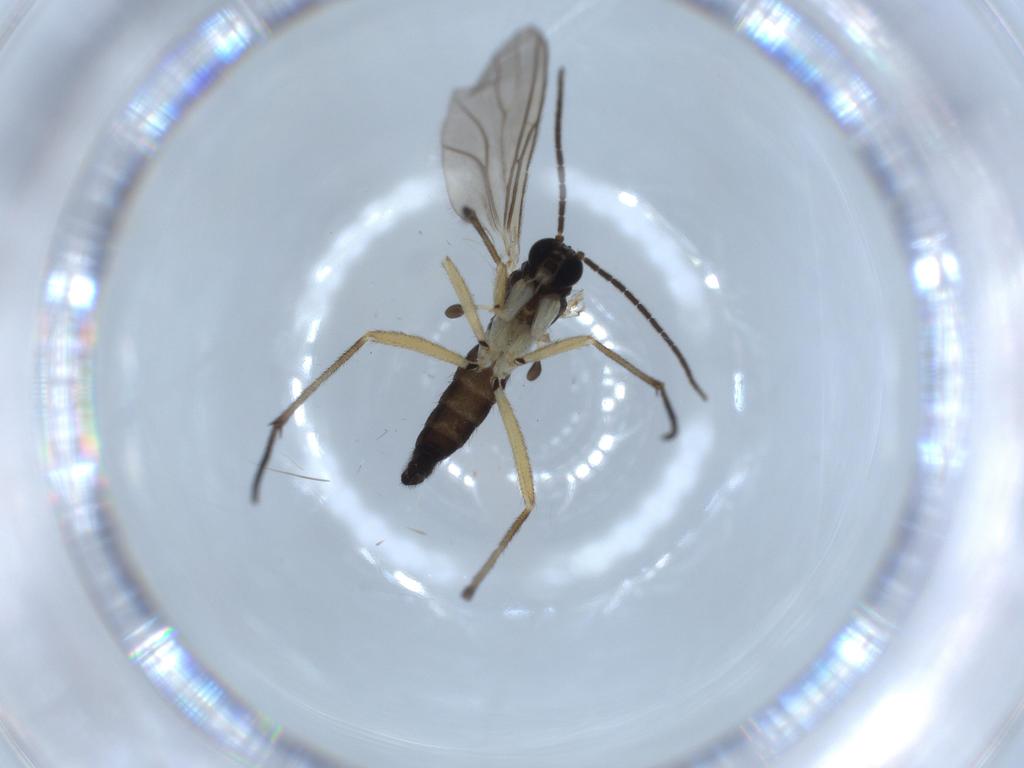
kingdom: Animalia
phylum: Arthropoda
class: Insecta
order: Diptera
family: Sciaridae
